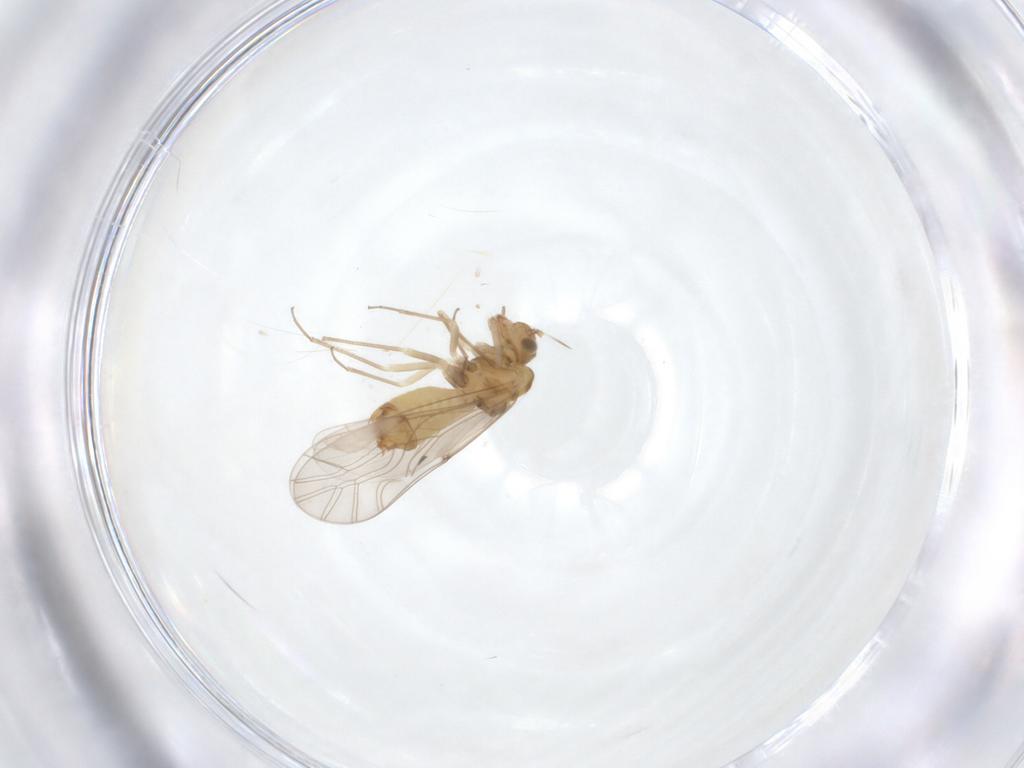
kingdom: Animalia
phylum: Arthropoda
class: Insecta
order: Psocodea
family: Lachesillidae
